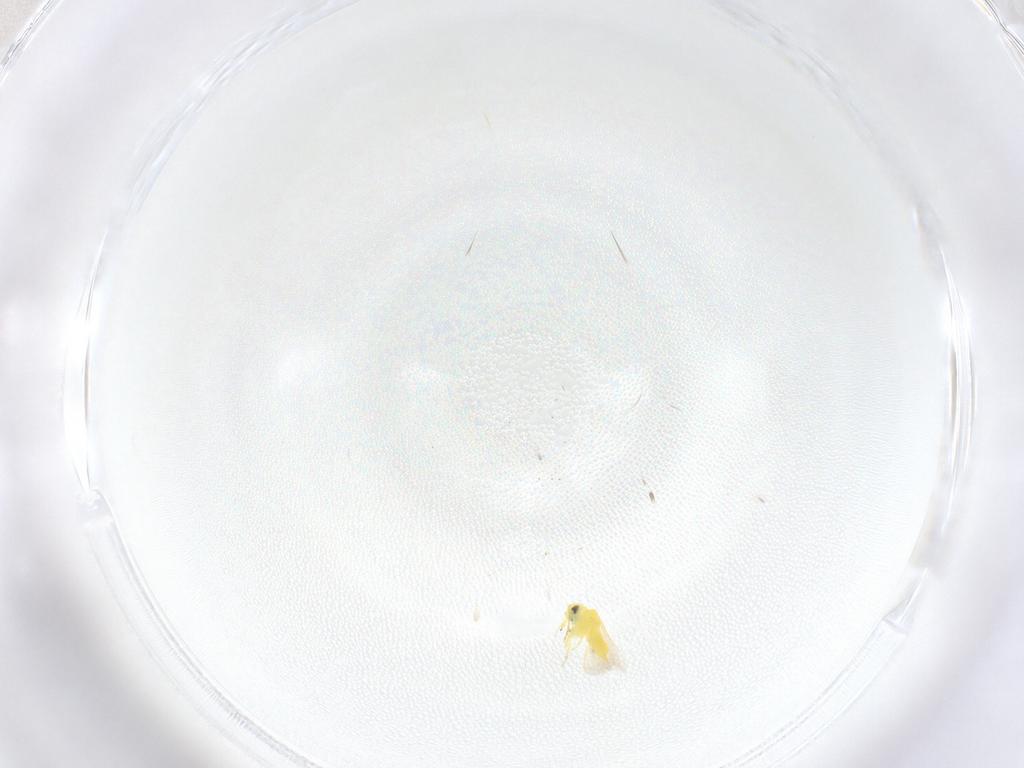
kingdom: Animalia
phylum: Arthropoda
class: Insecta
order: Hemiptera
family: Aleyrodidae
